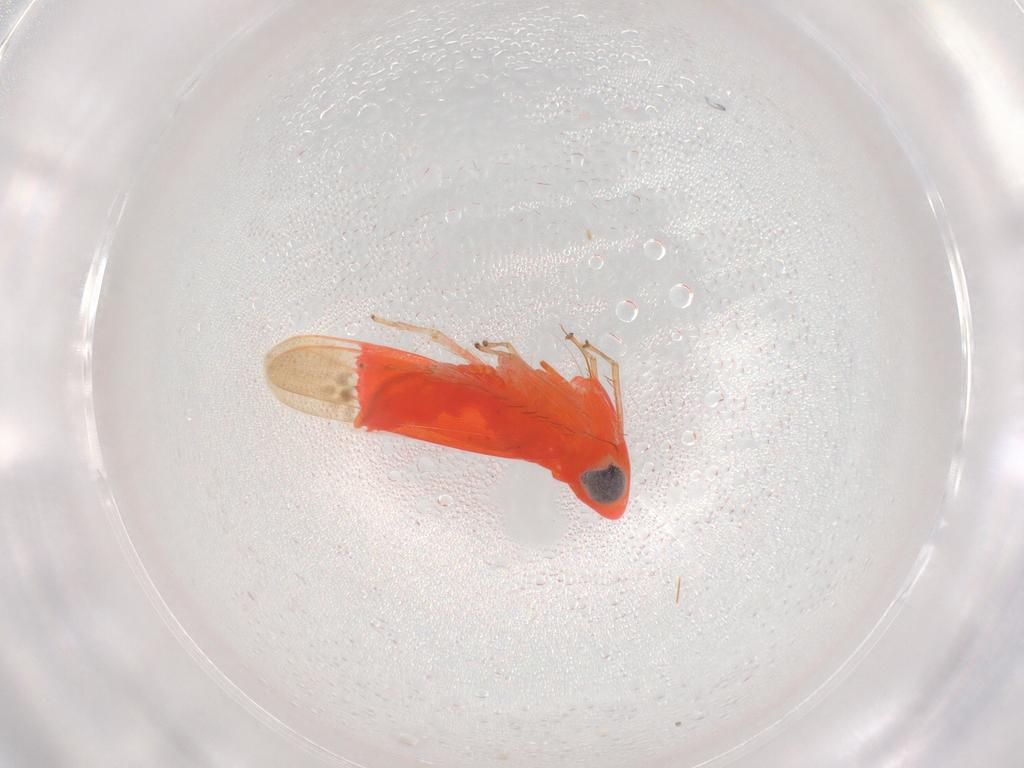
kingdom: Animalia
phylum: Arthropoda
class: Insecta
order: Hemiptera
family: Cicadellidae
